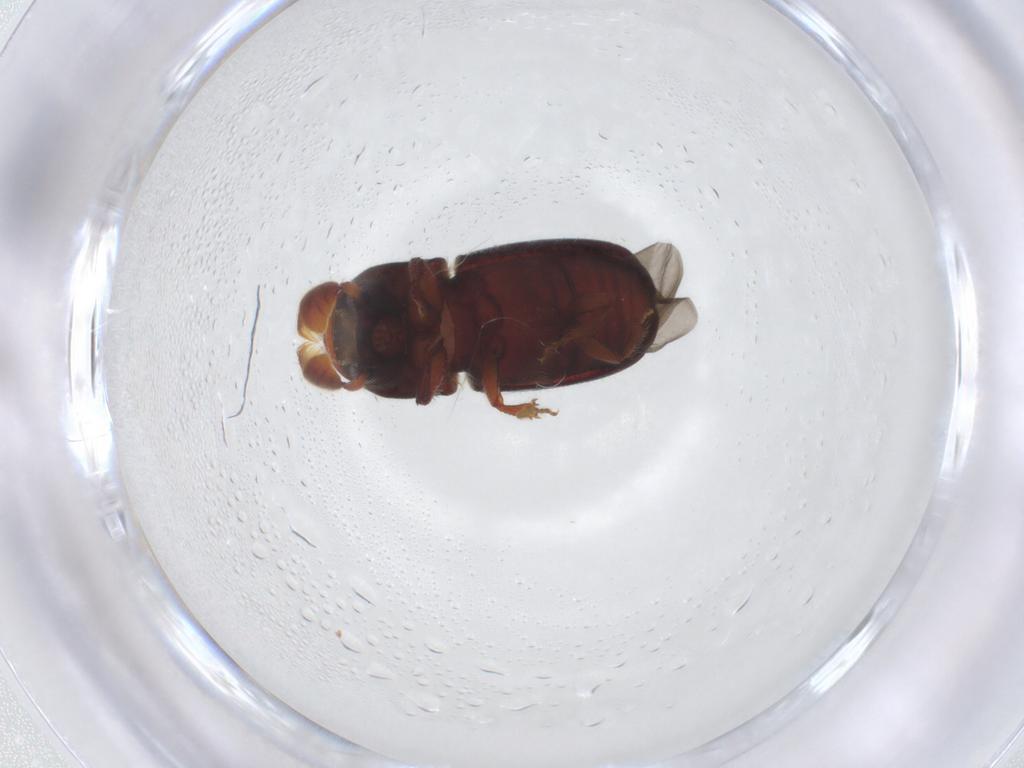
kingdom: Animalia
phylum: Arthropoda
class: Insecta
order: Coleoptera
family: Curculionidae
